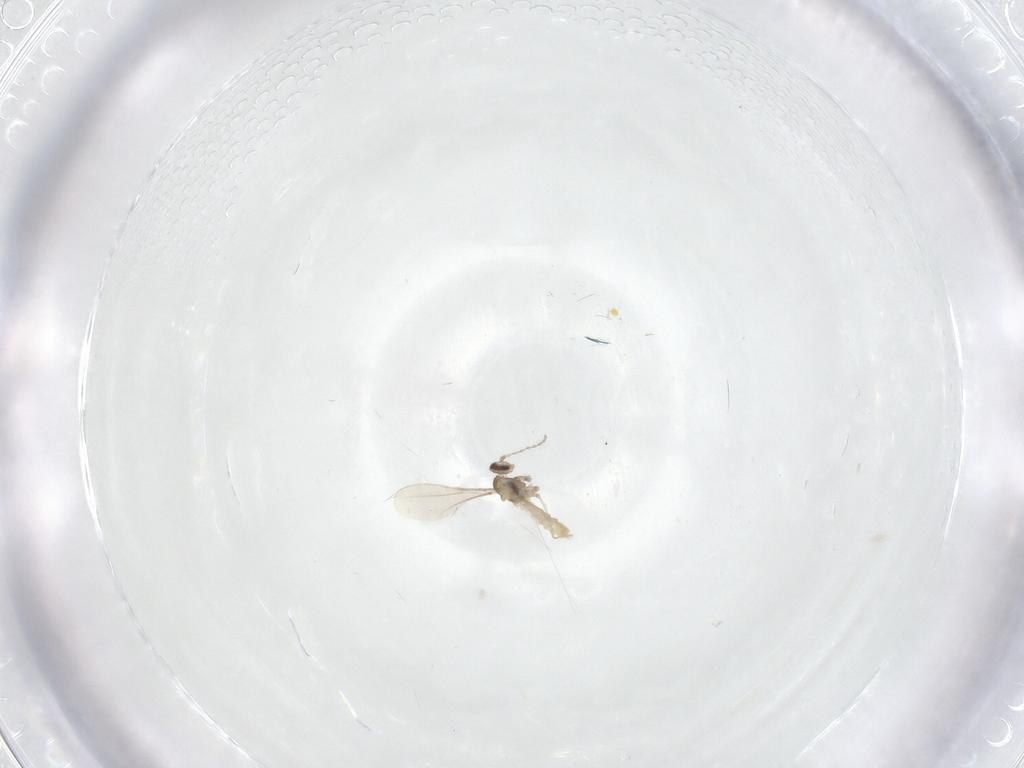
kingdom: Animalia
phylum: Arthropoda
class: Insecta
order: Diptera
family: Cecidomyiidae
